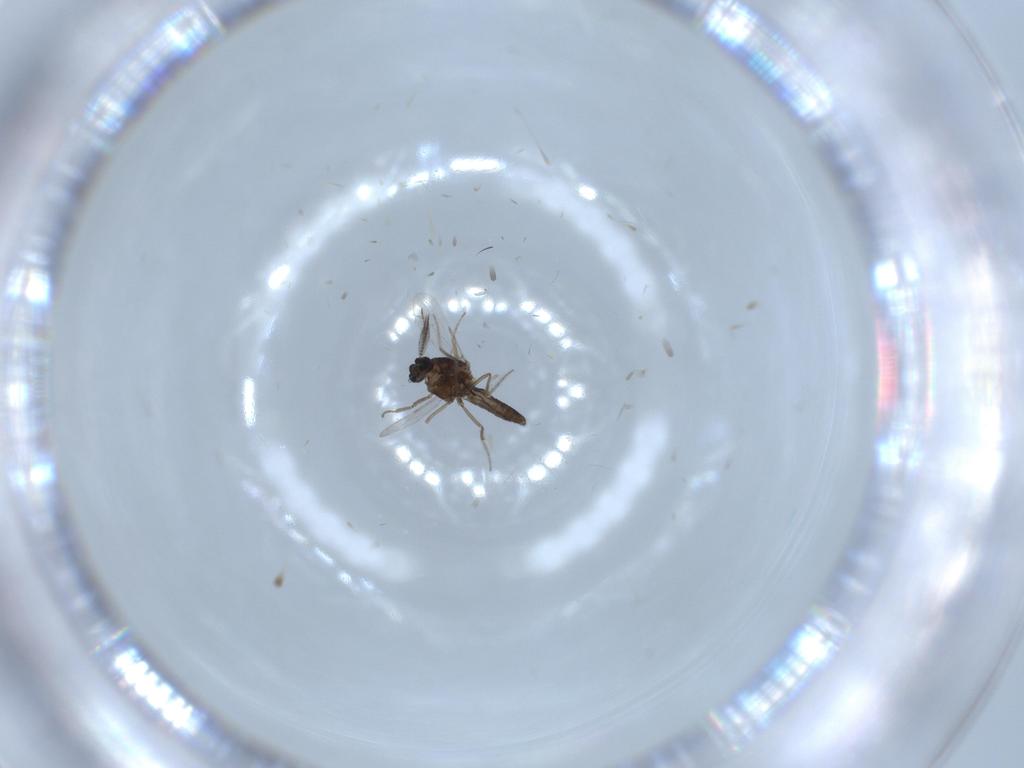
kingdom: Animalia
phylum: Arthropoda
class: Insecta
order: Diptera
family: Ceratopogonidae
